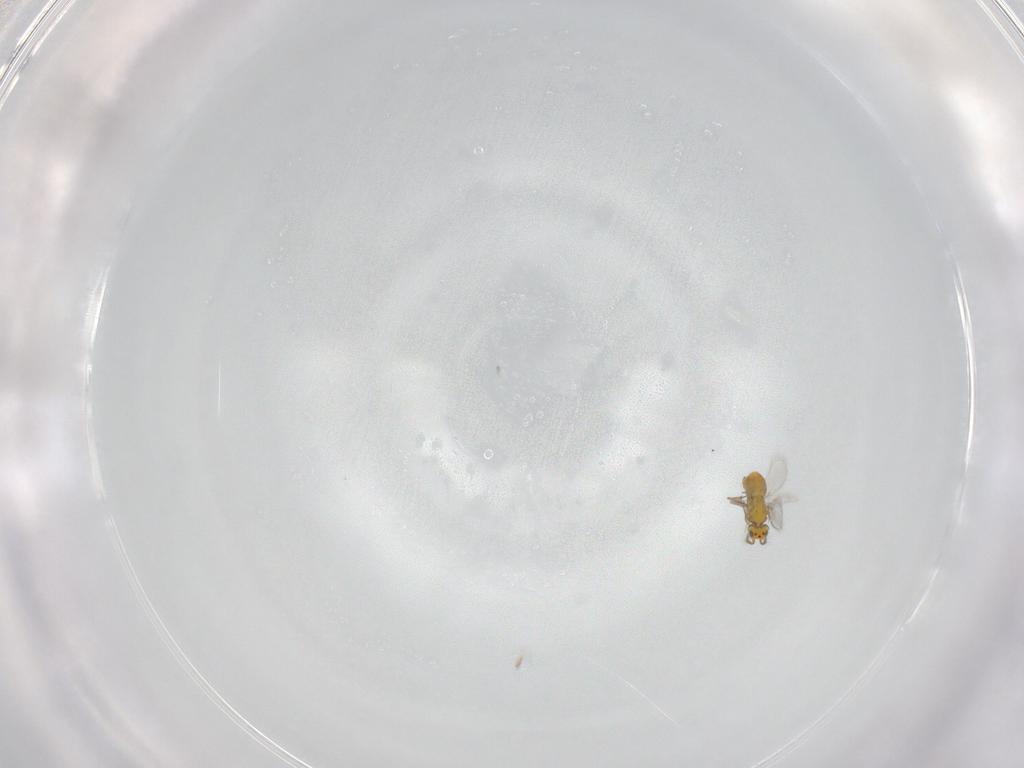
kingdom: Animalia
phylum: Arthropoda
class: Insecta
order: Hymenoptera
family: Aphelinidae
